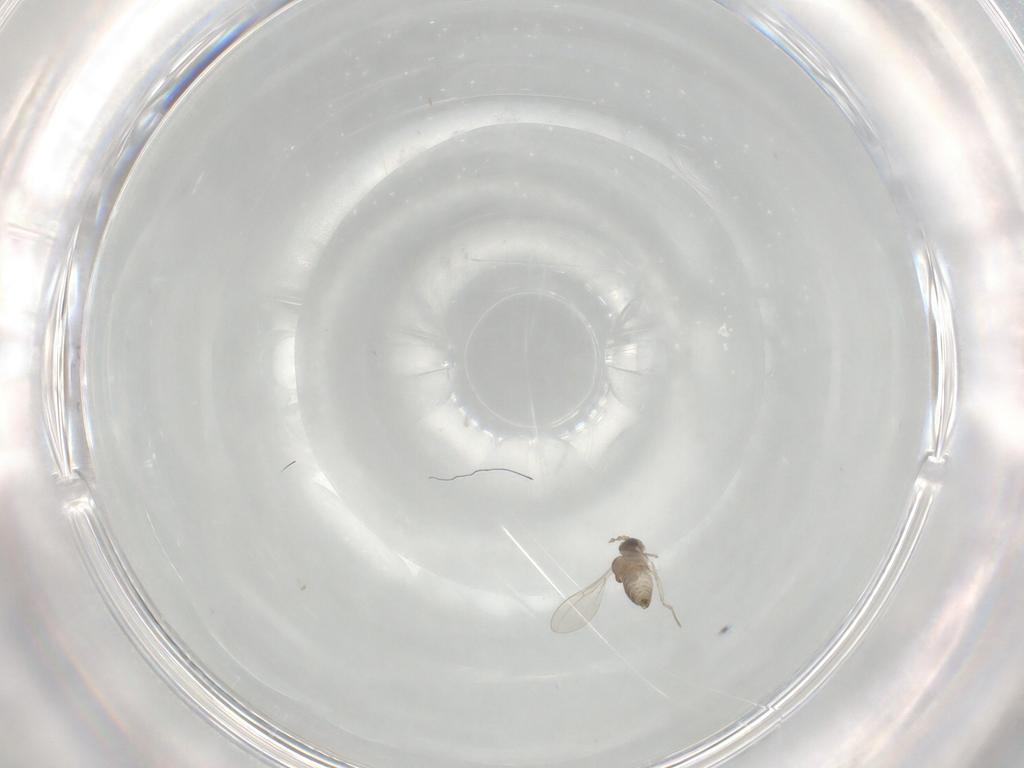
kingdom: Animalia
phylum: Arthropoda
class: Insecta
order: Diptera
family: Cecidomyiidae
